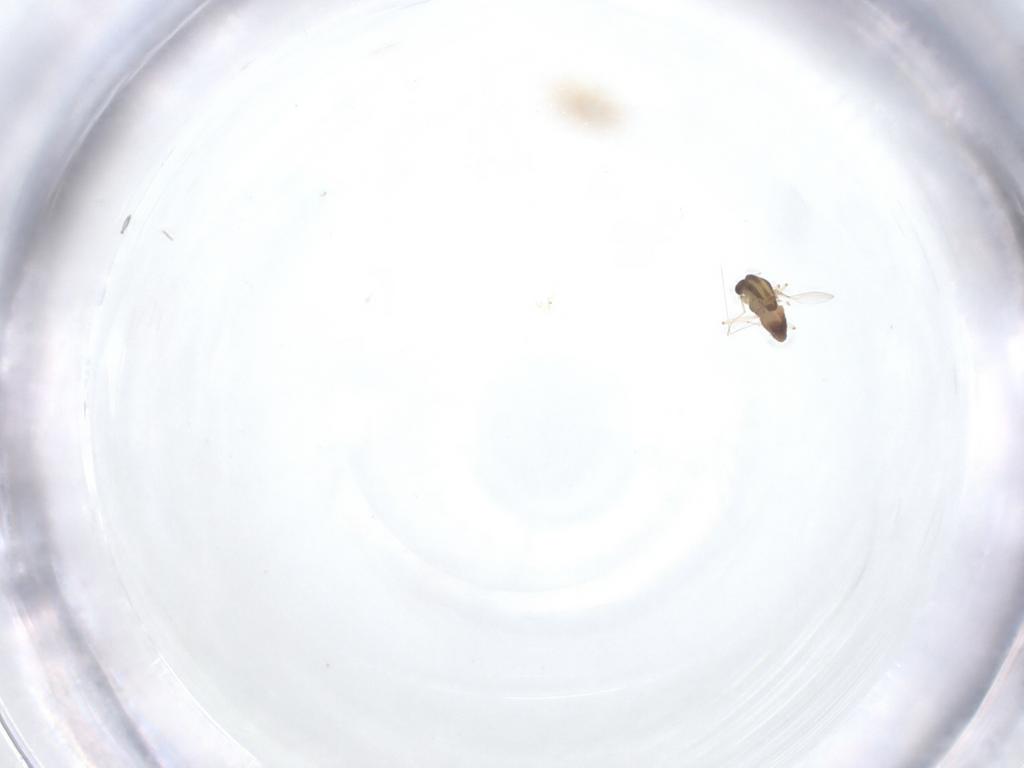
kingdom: Animalia
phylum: Arthropoda
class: Insecta
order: Diptera
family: Chironomidae
